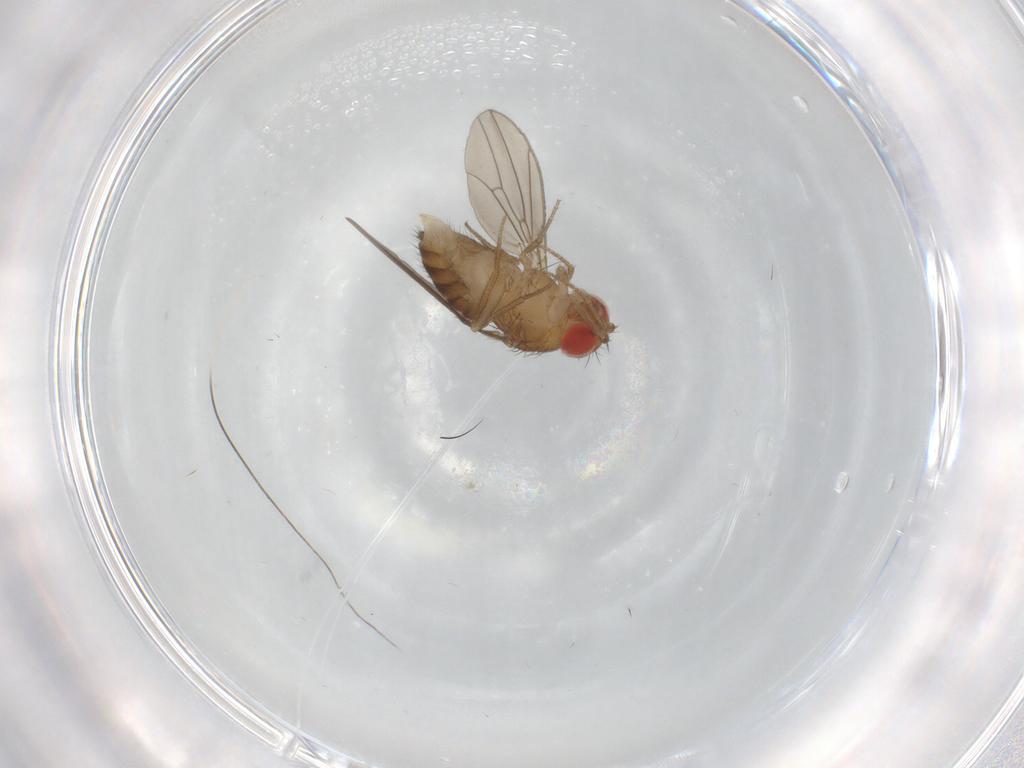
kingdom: Animalia
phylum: Arthropoda
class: Insecta
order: Diptera
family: Drosophilidae
